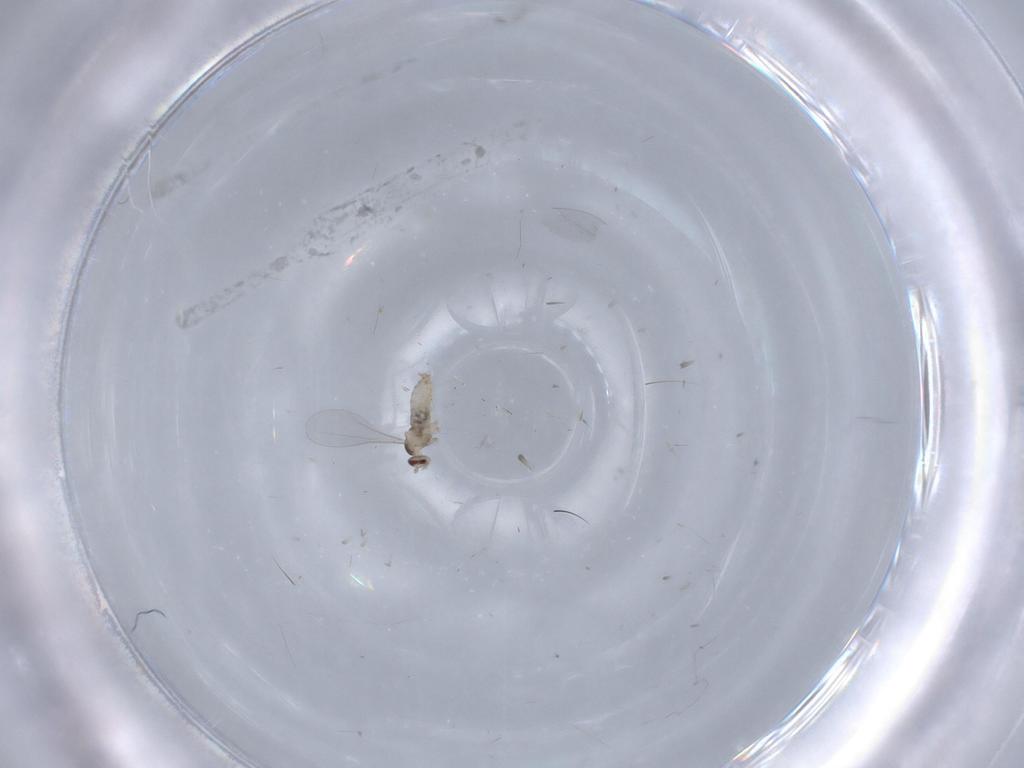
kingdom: Animalia
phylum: Arthropoda
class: Insecta
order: Diptera
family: Cecidomyiidae
